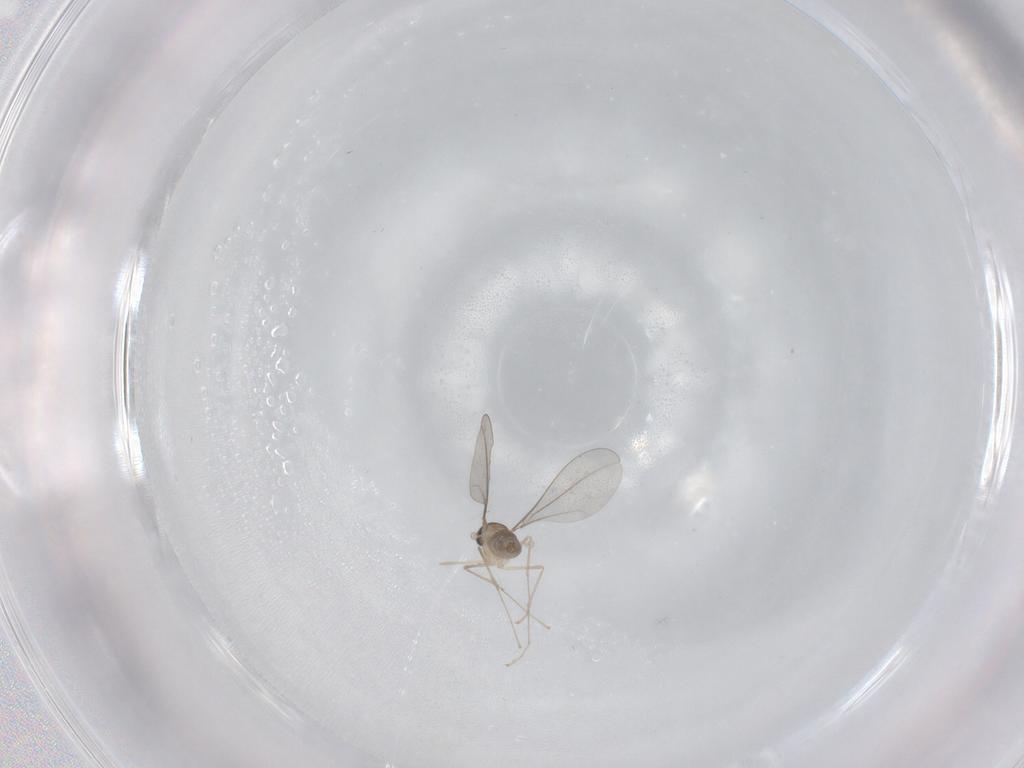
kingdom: Animalia
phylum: Arthropoda
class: Insecta
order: Diptera
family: Cecidomyiidae
